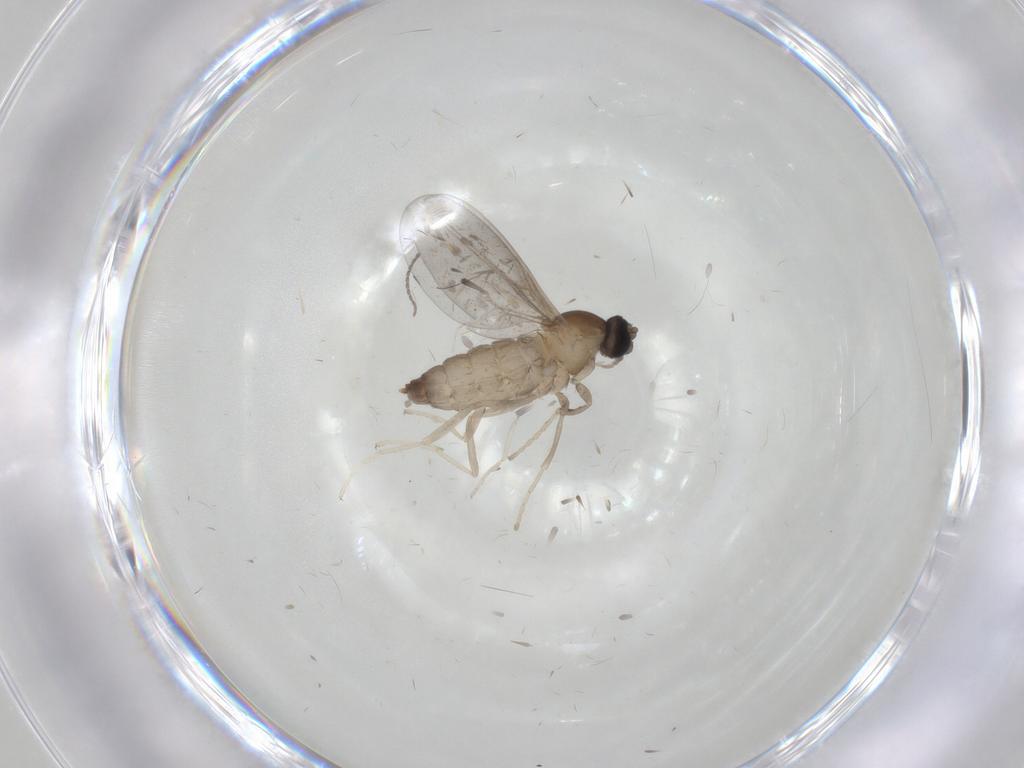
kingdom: Animalia
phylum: Arthropoda
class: Insecta
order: Diptera
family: Cecidomyiidae
